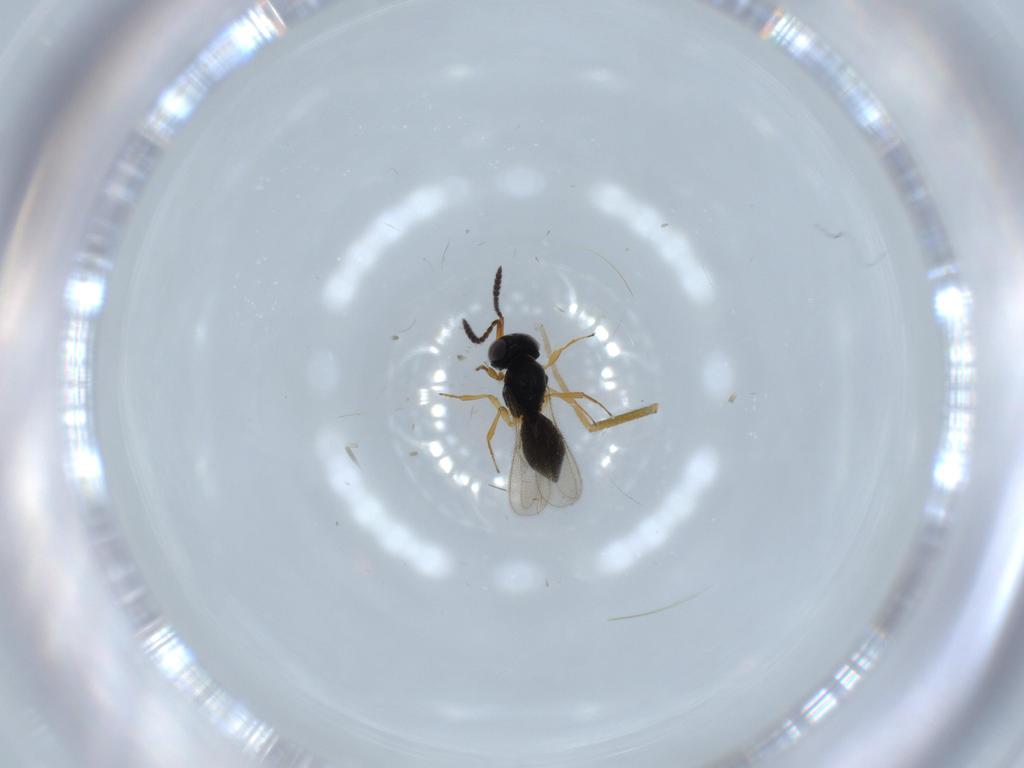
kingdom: Animalia
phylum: Arthropoda
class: Insecta
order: Hymenoptera
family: Scelionidae
